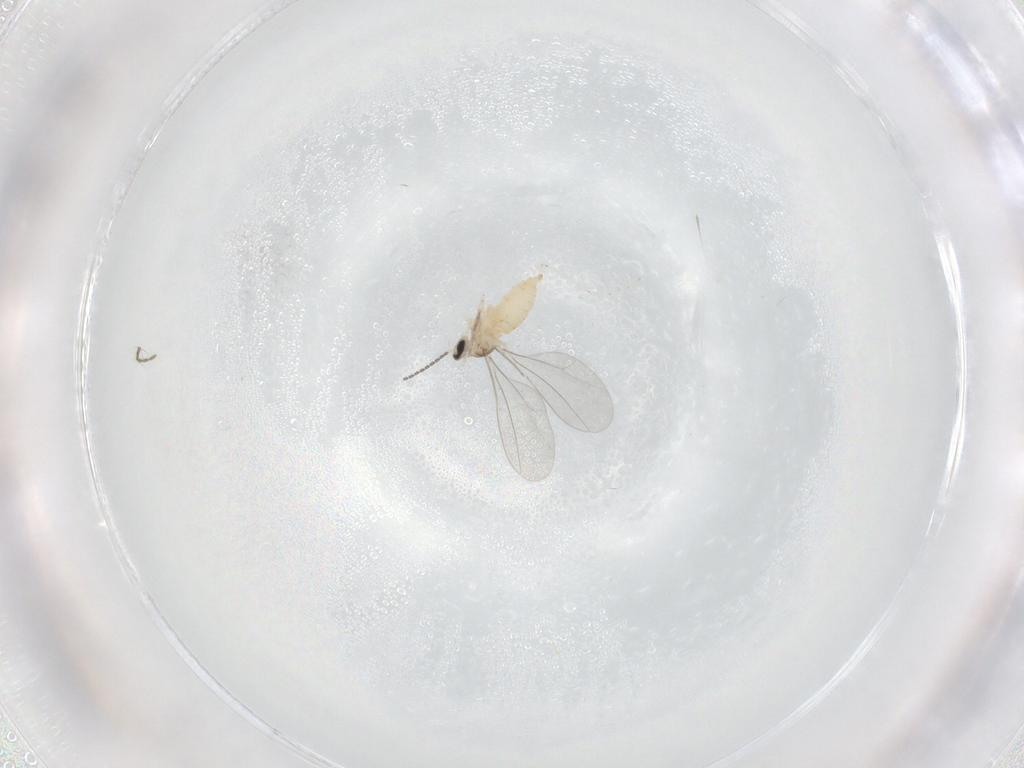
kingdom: Animalia
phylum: Arthropoda
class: Insecta
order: Diptera
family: Cecidomyiidae
